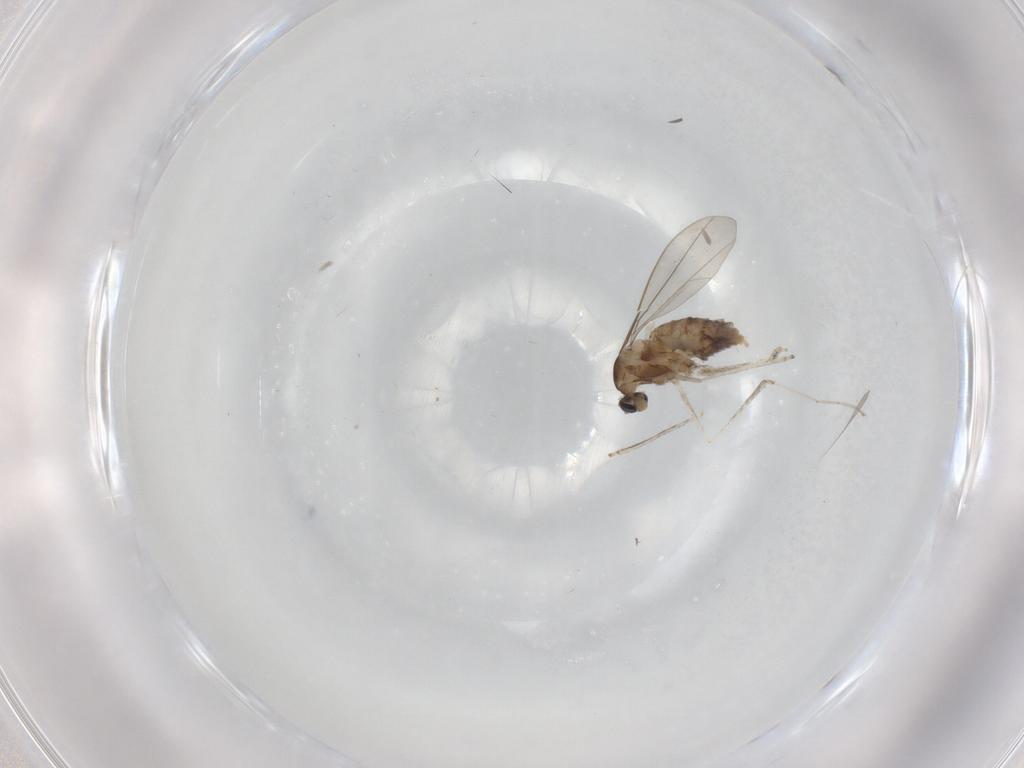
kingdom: Animalia
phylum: Arthropoda
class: Insecta
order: Diptera
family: Cecidomyiidae
